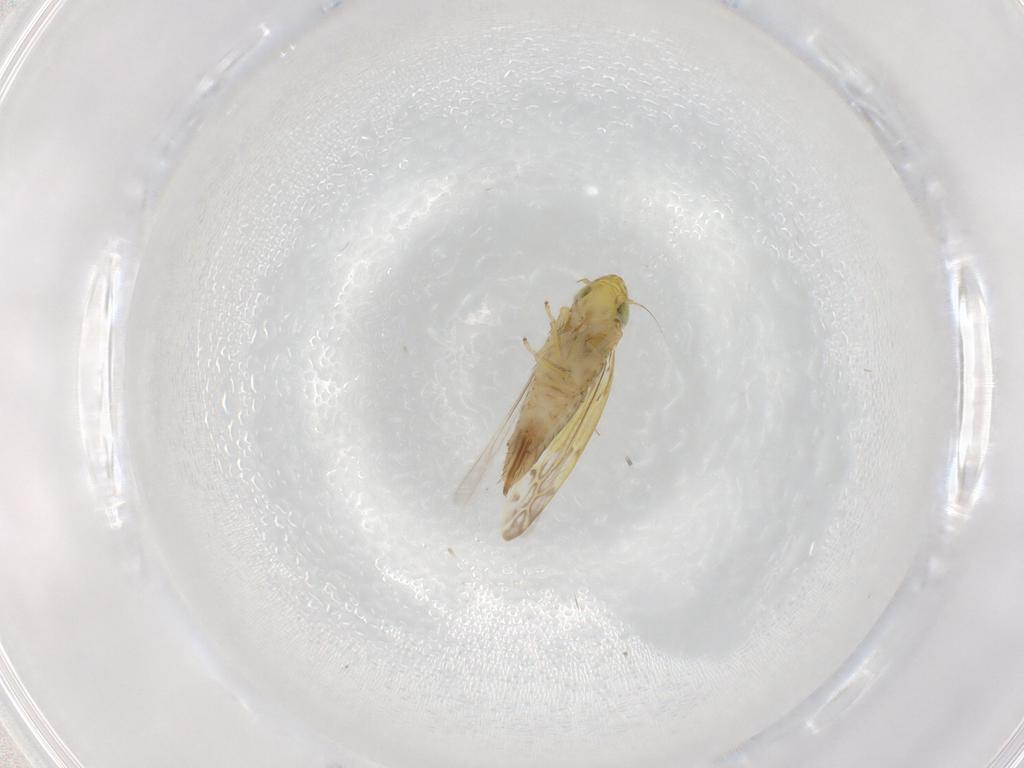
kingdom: Animalia
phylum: Arthropoda
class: Insecta
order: Hemiptera
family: Cicadellidae
